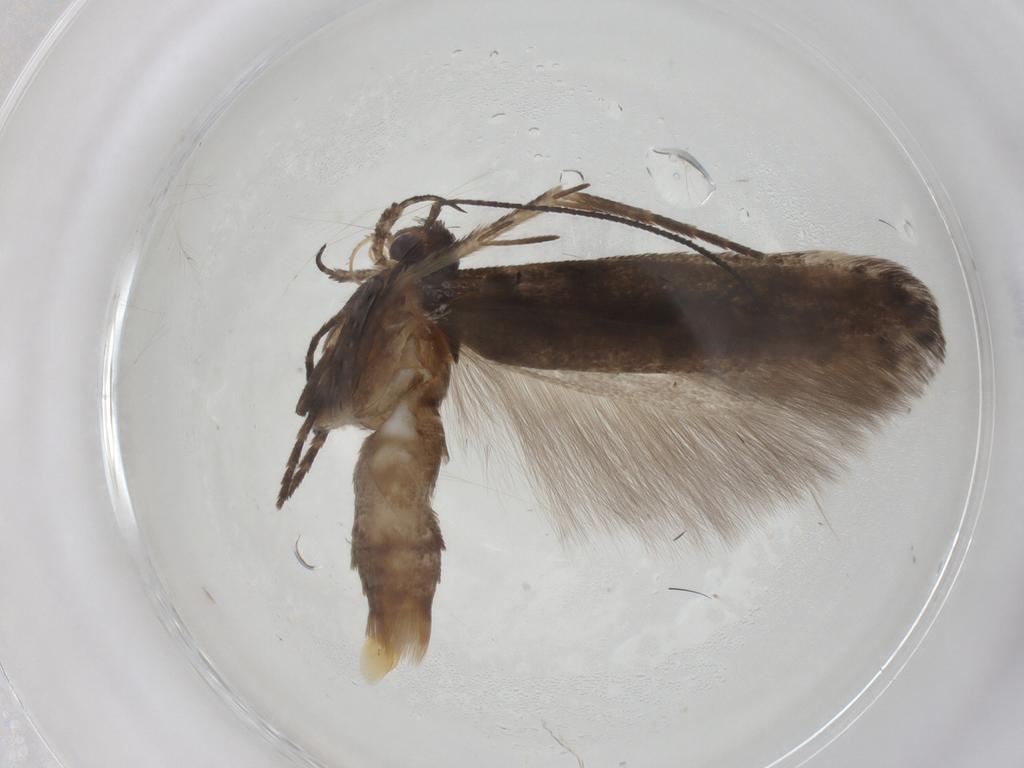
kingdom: Animalia
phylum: Arthropoda
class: Insecta
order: Lepidoptera
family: Gelechiidae
